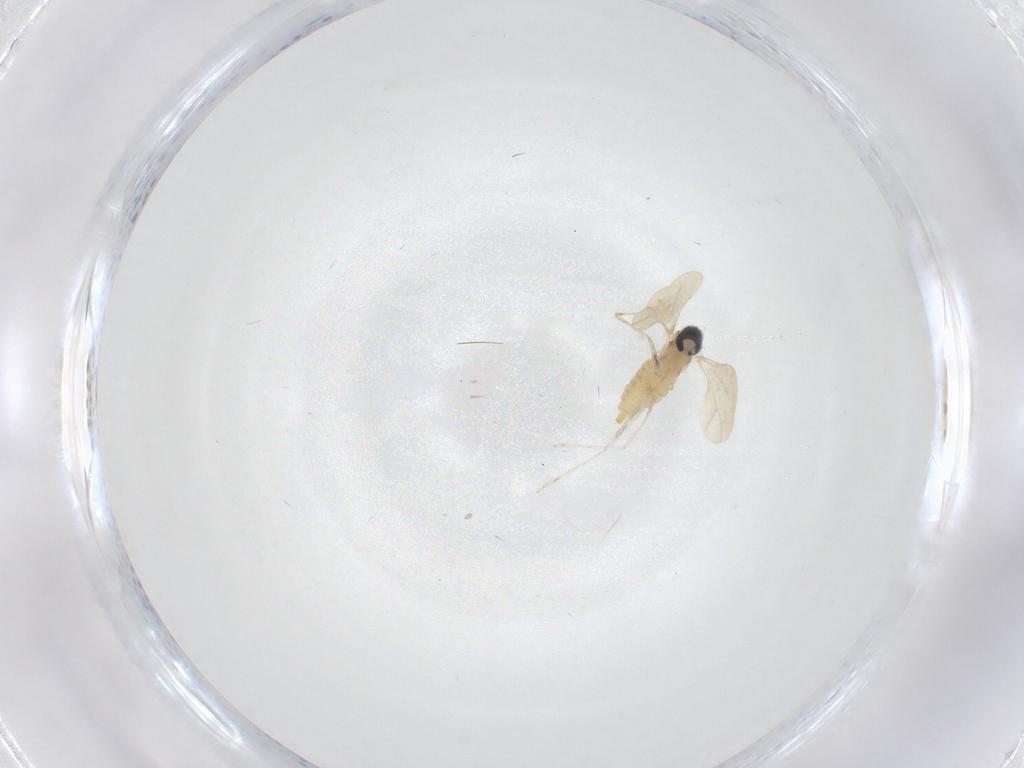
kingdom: Animalia
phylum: Arthropoda
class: Insecta
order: Diptera
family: Cecidomyiidae
